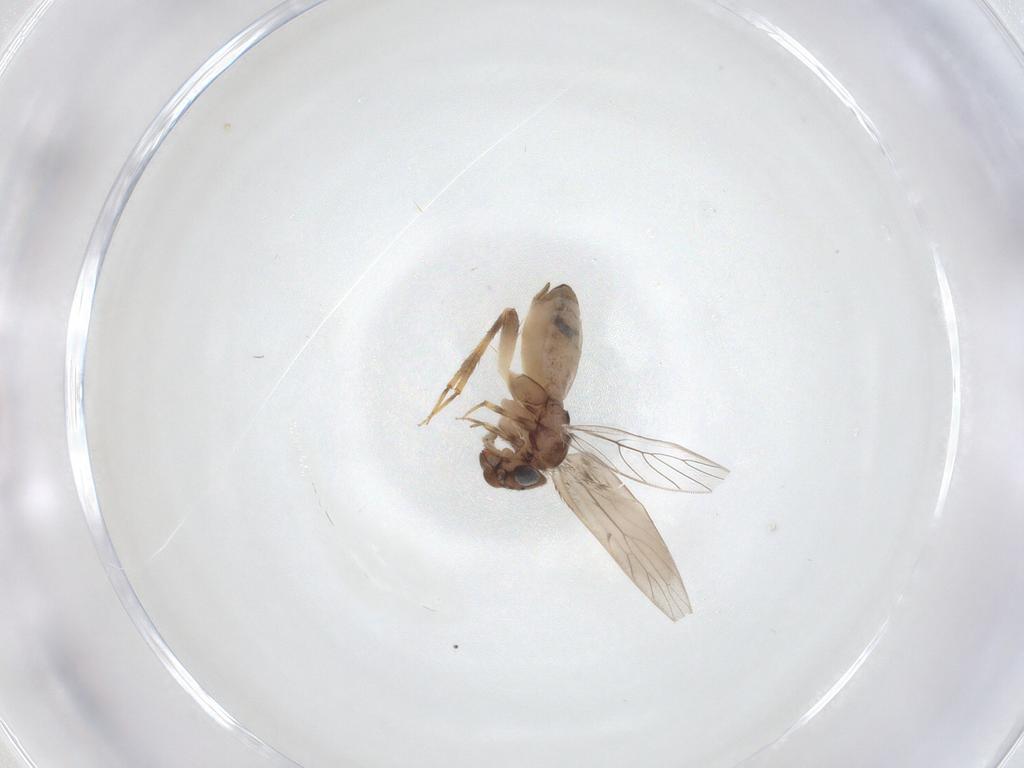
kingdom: Animalia
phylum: Arthropoda
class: Insecta
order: Psocodea
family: Lepidopsocidae
